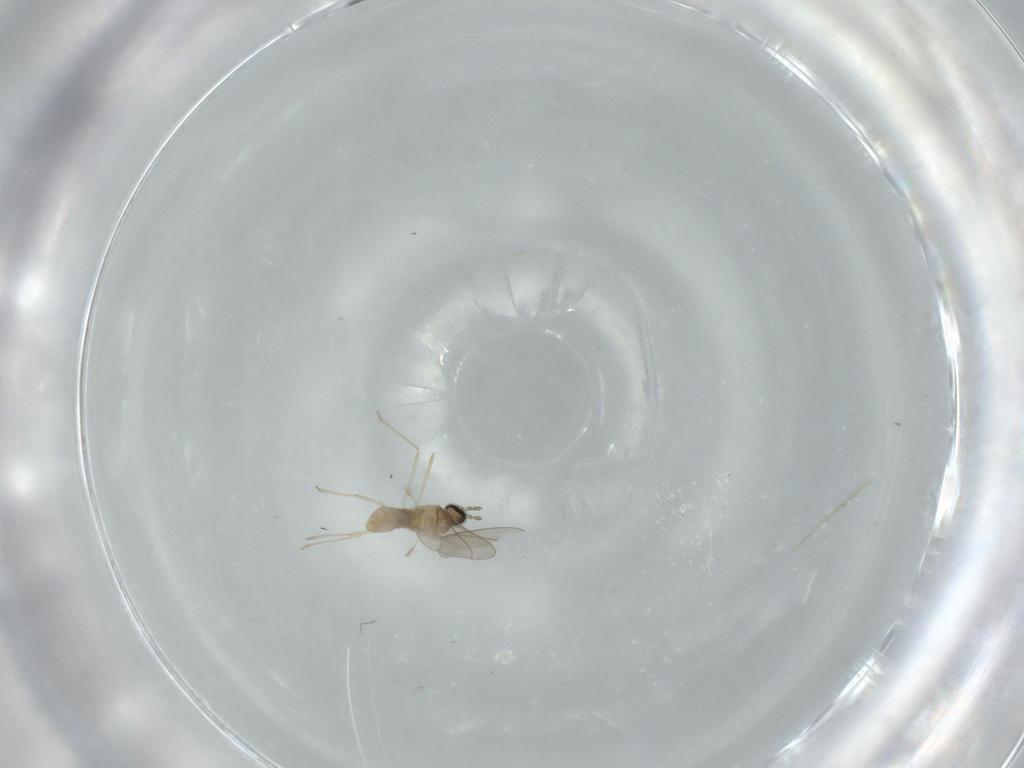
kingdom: Animalia
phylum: Arthropoda
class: Insecta
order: Diptera
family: Cecidomyiidae
